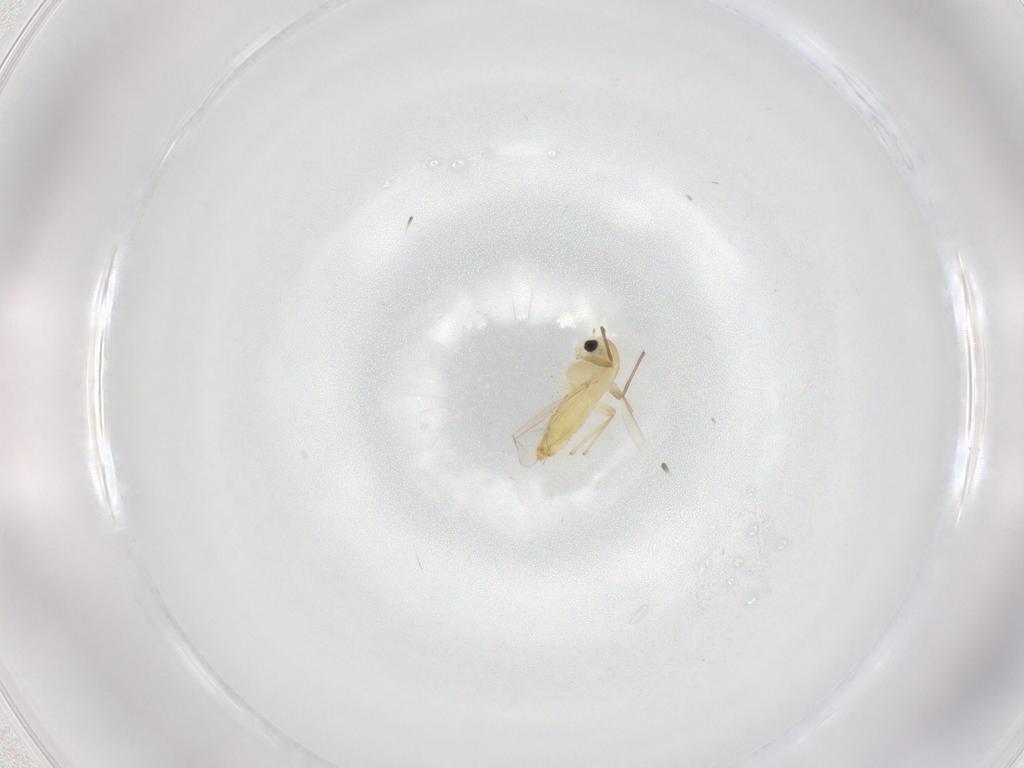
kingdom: Animalia
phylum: Arthropoda
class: Insecta
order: Diptera
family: Chironomidae
